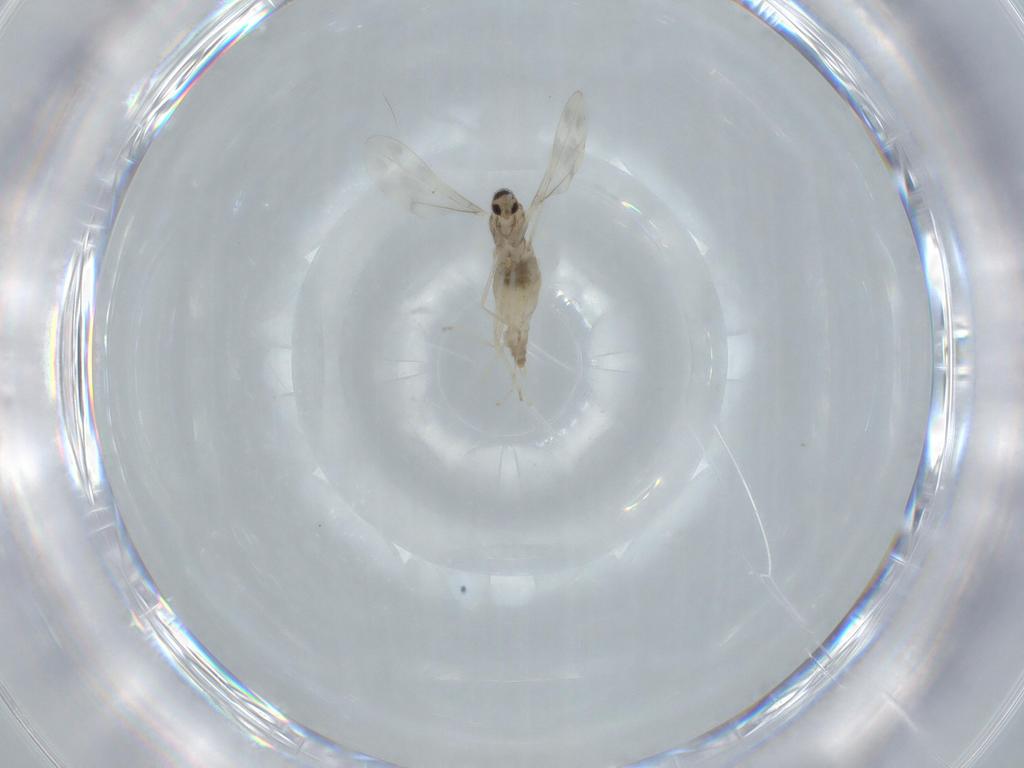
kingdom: Animalia
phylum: Arthropoda
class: Insecta
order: Diptera
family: Cecidomyiidae
